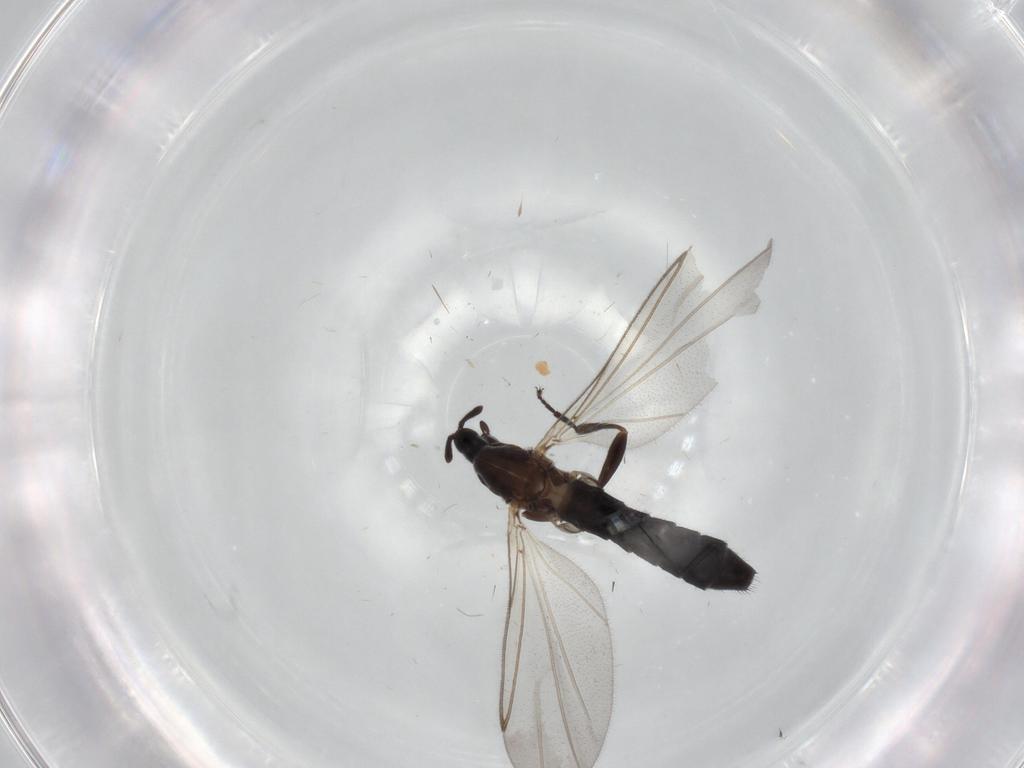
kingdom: Animalia
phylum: Arthropoda
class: Insecta
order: Diptera
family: Scatopsidae
